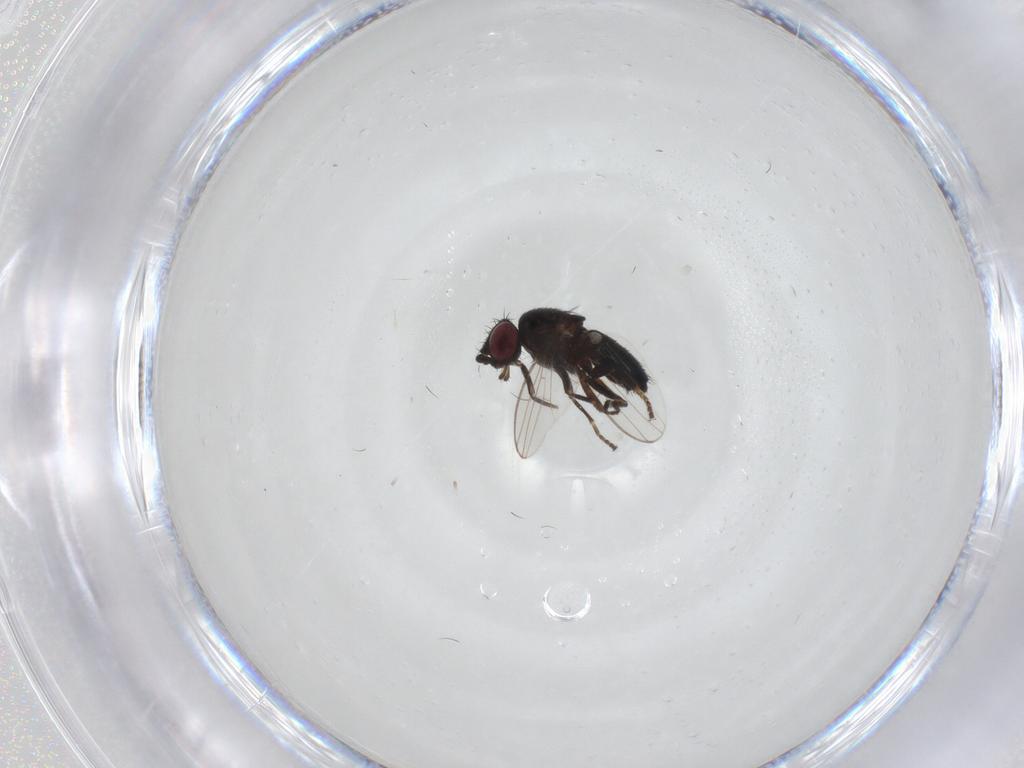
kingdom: Animalia
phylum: Arthropoda
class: Insecta
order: Diptera
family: Milichiidae
